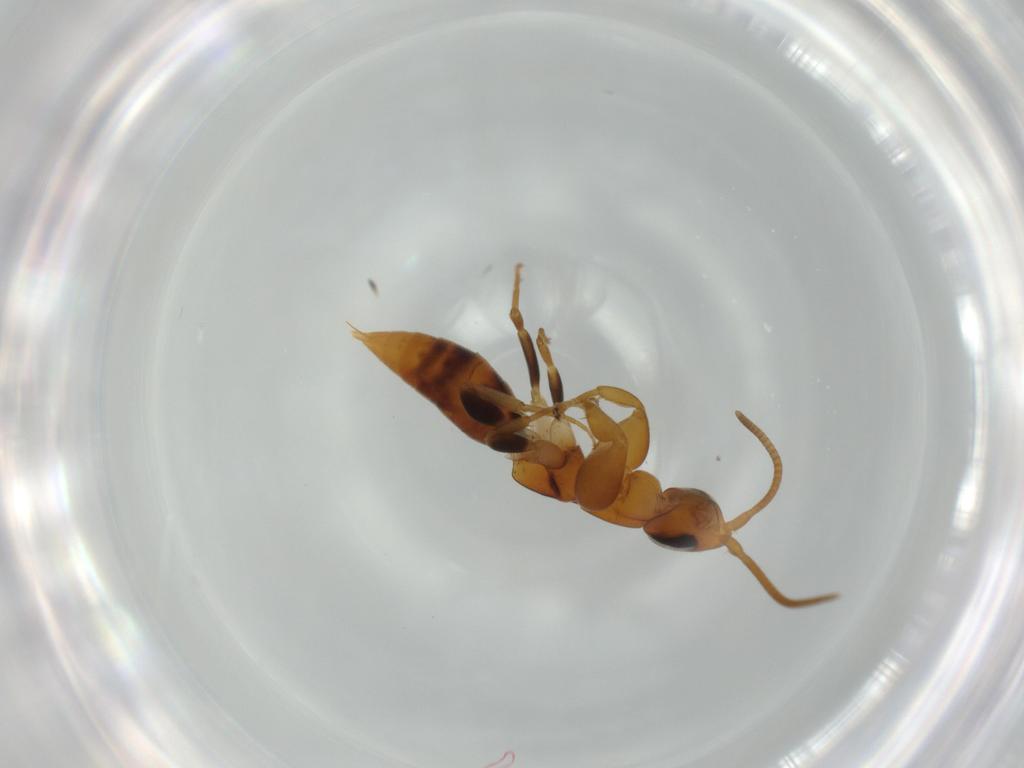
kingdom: Animalia
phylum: Arthropoda
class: Insecta
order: Hymenoptera
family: Sclerogibbidae
